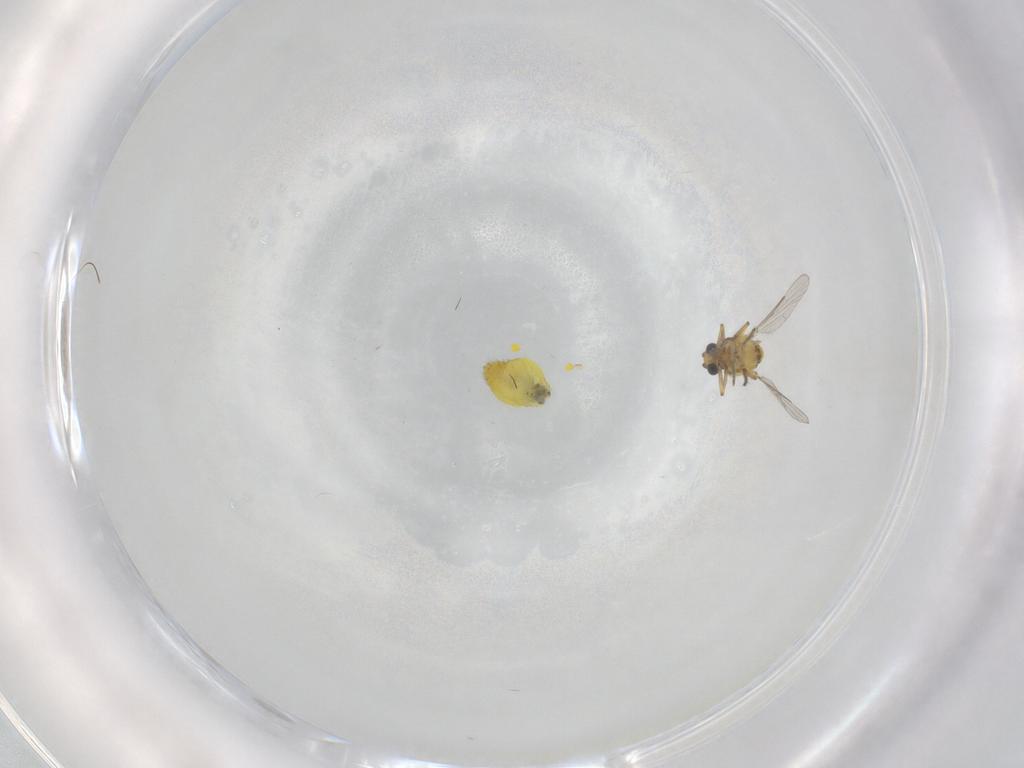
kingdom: Animalia
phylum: Arthropoda
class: Insecta
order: Diptera
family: Ceratopogonidae
